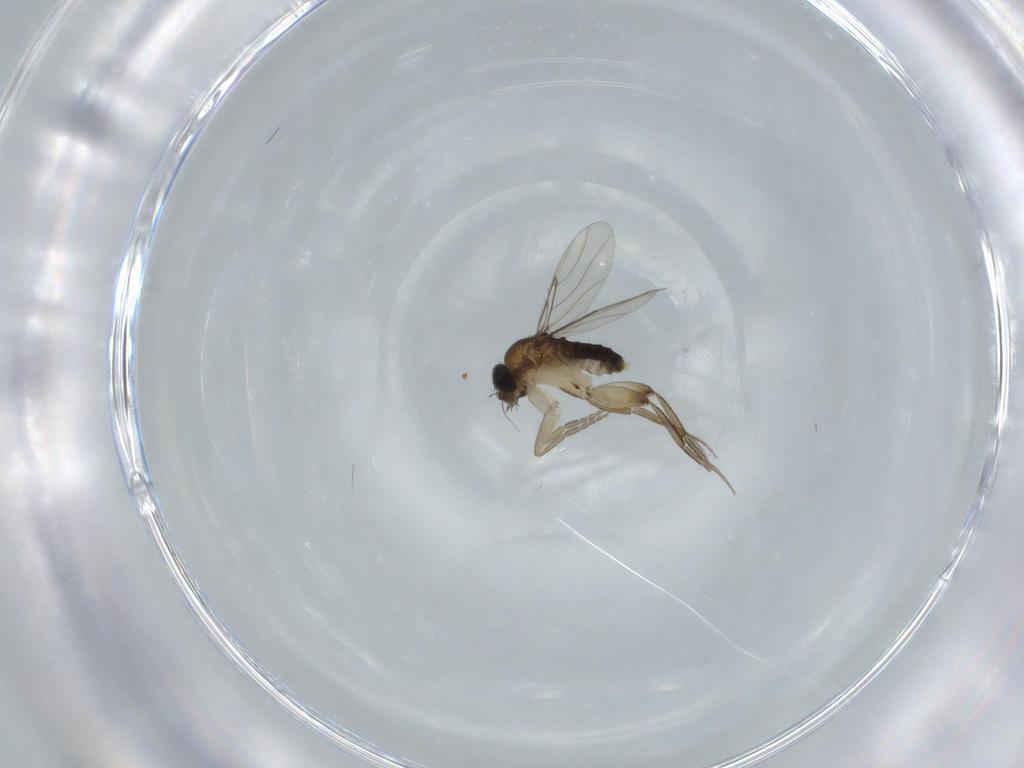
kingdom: Animalia
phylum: Arthropoda
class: Insecta
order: Diptera
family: Phoridae
